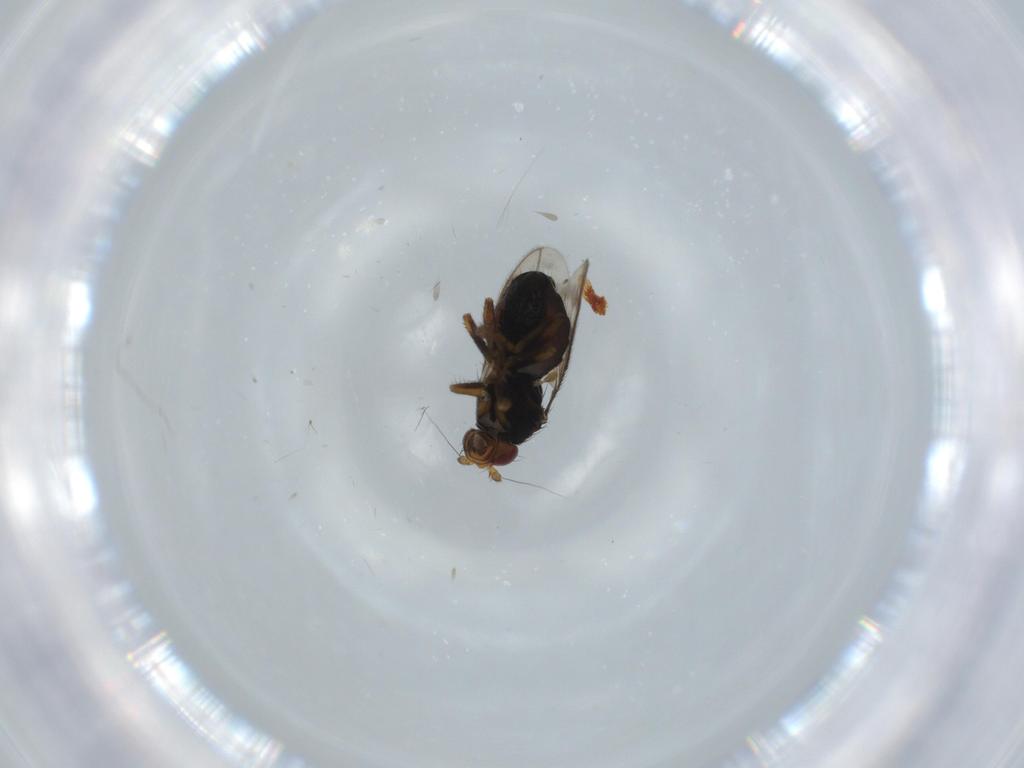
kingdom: Animalia
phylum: Arthropoda
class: Insecta
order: Diptera
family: Sphaeroceridae
